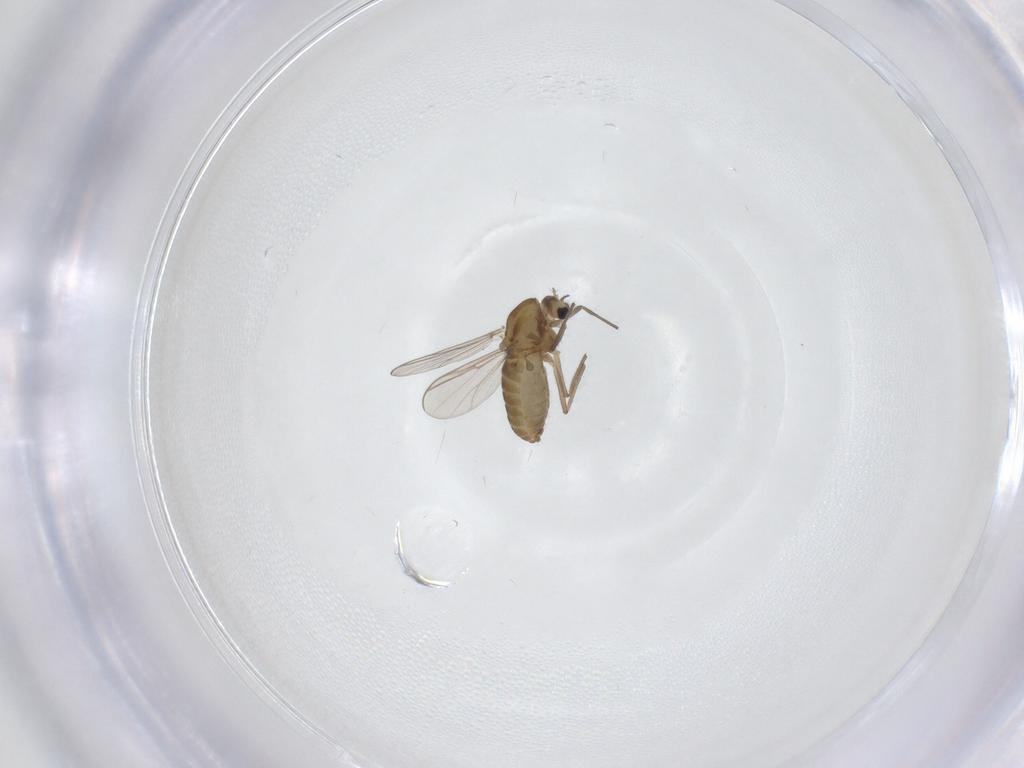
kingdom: Animalia
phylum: Arthropoda
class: Insecta
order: Diptera
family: Chironomidae
